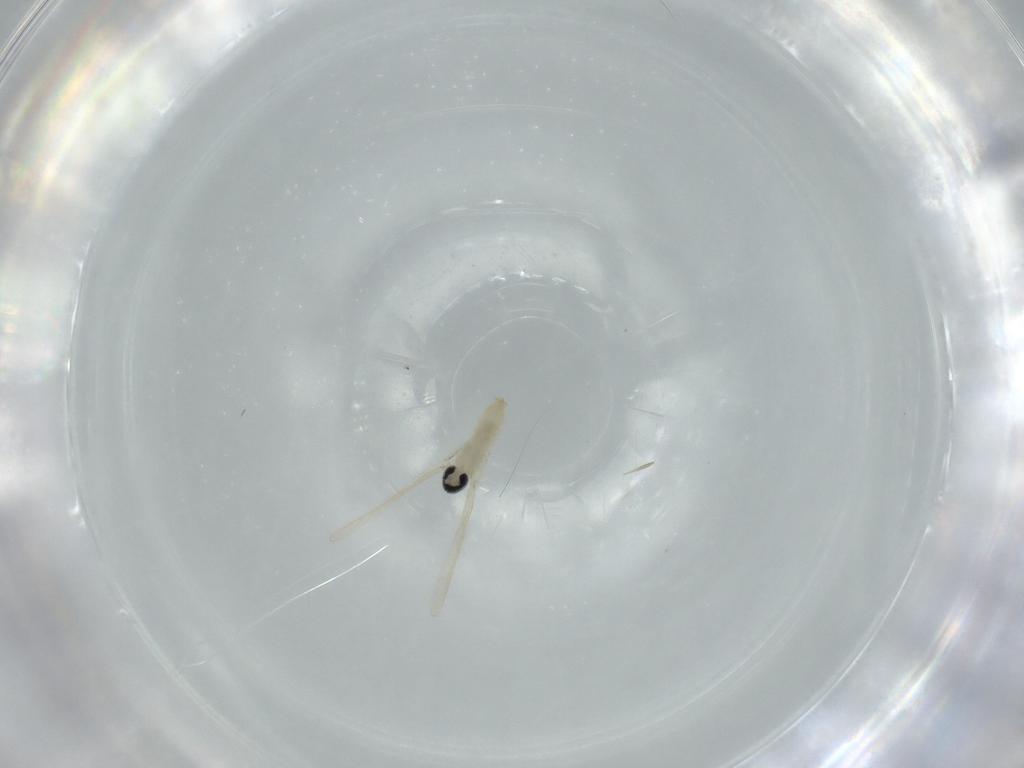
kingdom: Animalia
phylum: Arthropoda
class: Insecta
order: Diptera
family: Cecidomyiidae
